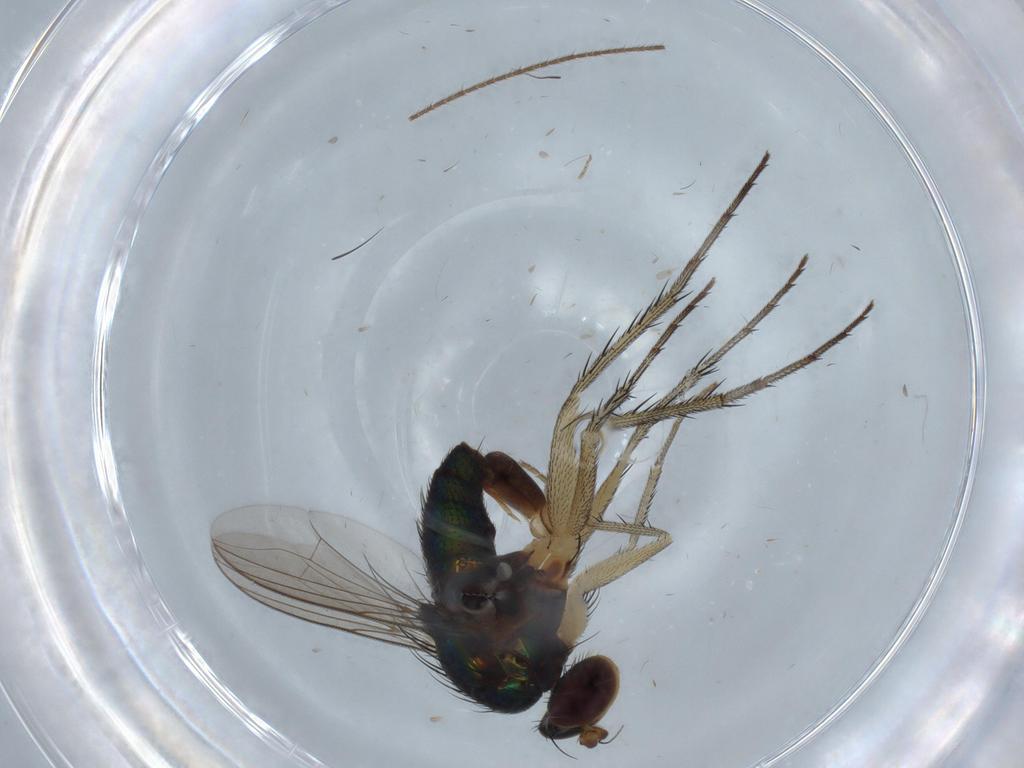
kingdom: Animalia
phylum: Arthropoda
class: Insecta
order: Diptera
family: Dolichopodidae
